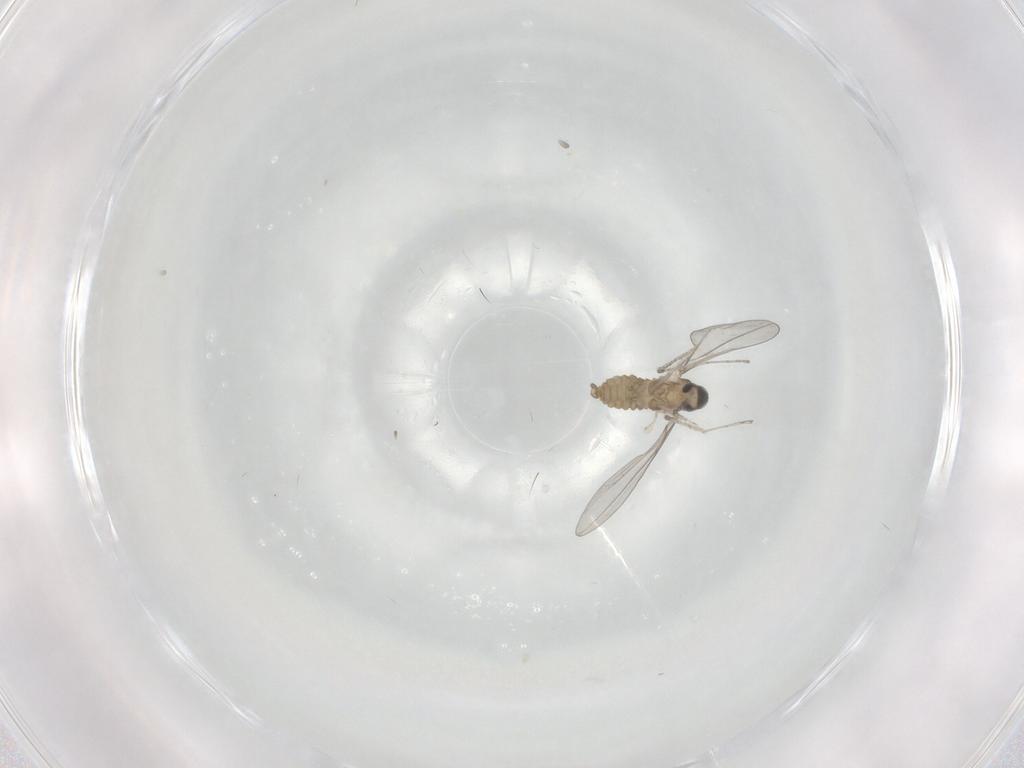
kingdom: Animalia
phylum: Arthropoda
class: Insecta
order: Diptera
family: Cecidomyiidae
